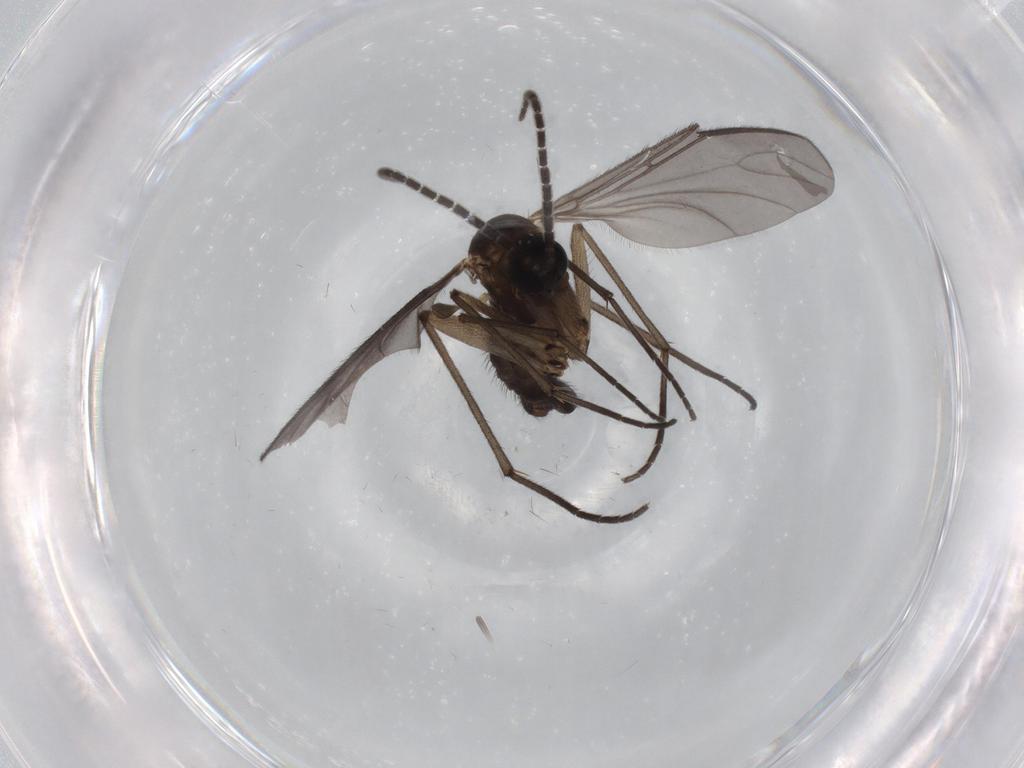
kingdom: Animalia
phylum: Arthropoda
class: Insecta
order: Diptera
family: Sciaridae
